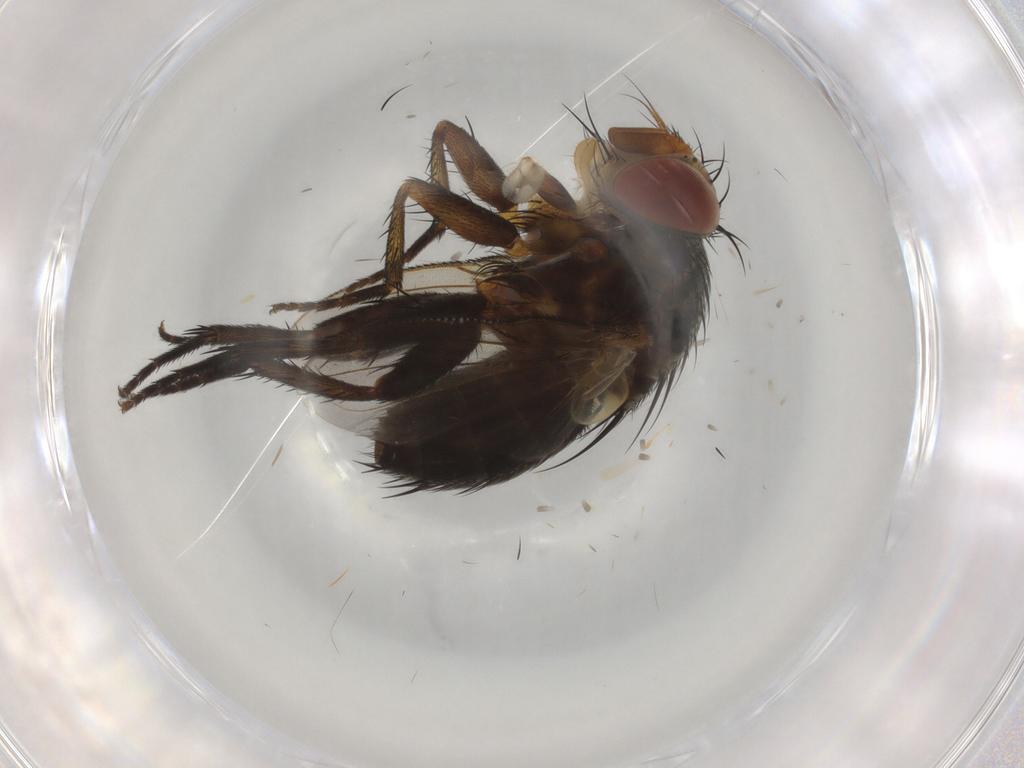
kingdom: Animalia
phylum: Arthropoda
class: Insecta
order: Diptera
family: Tachinidae
